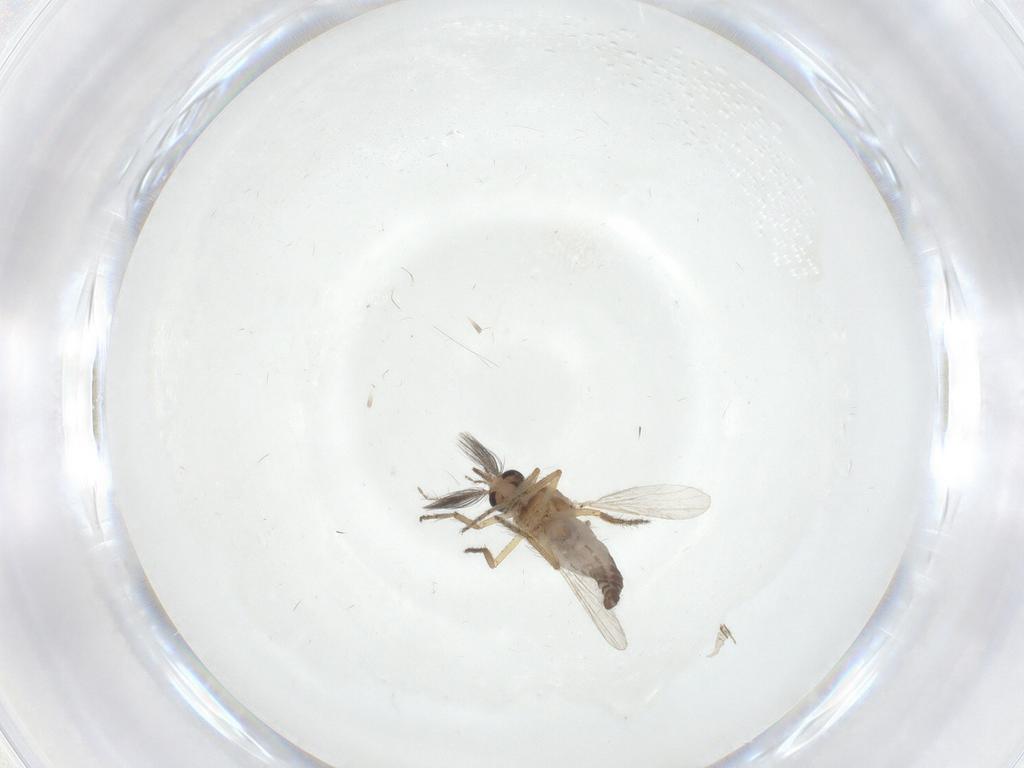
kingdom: Animalia
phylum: Arthropoda
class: Insecta
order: Diptera
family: Ceratopogonidae
